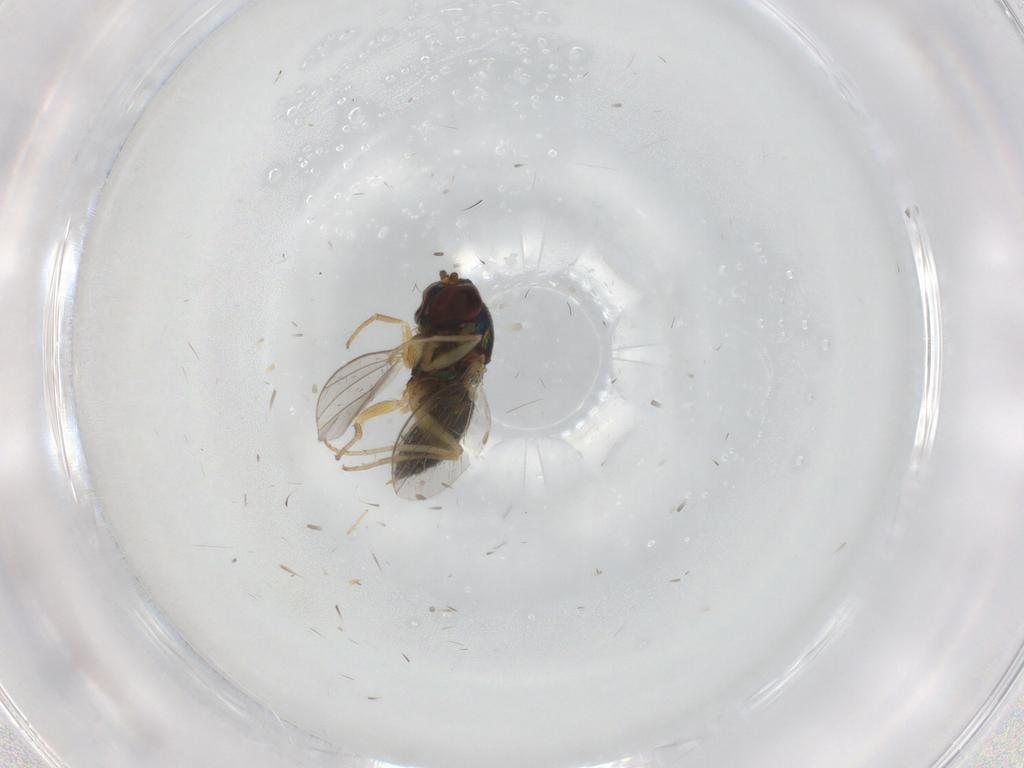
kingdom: Animalia
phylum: Arthropoda
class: Insecta
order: Diptera
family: Dolichopodidae
